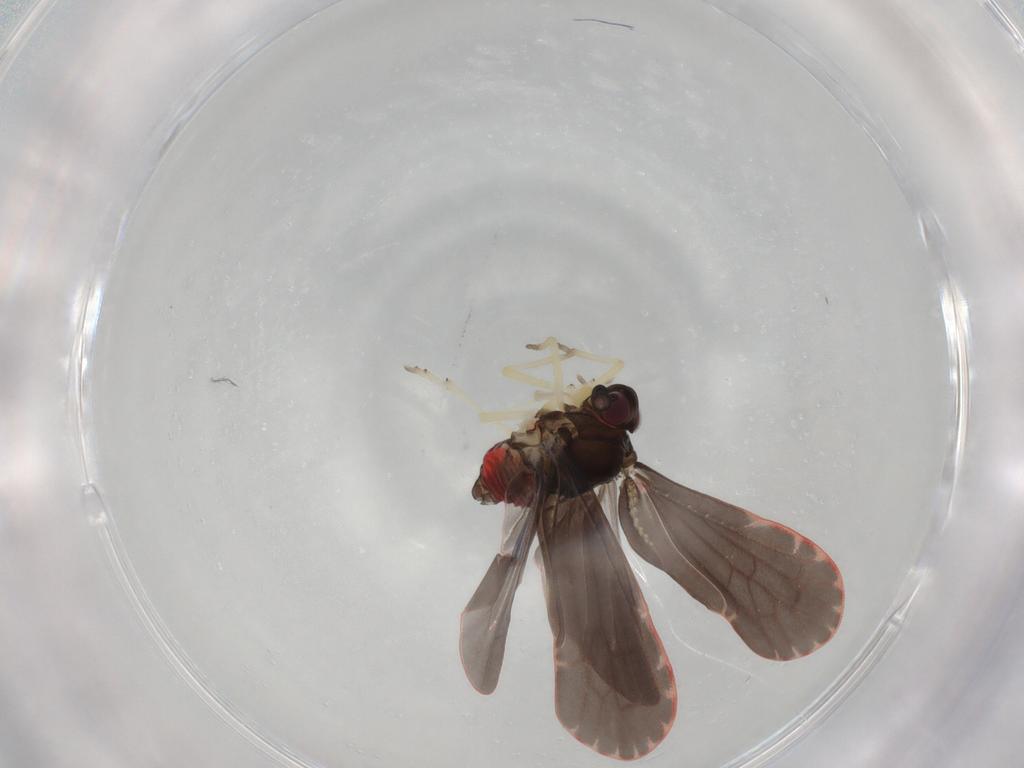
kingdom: Animalia
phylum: Arthropoda
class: Insecta
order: Hemiptera
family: Derbidae
